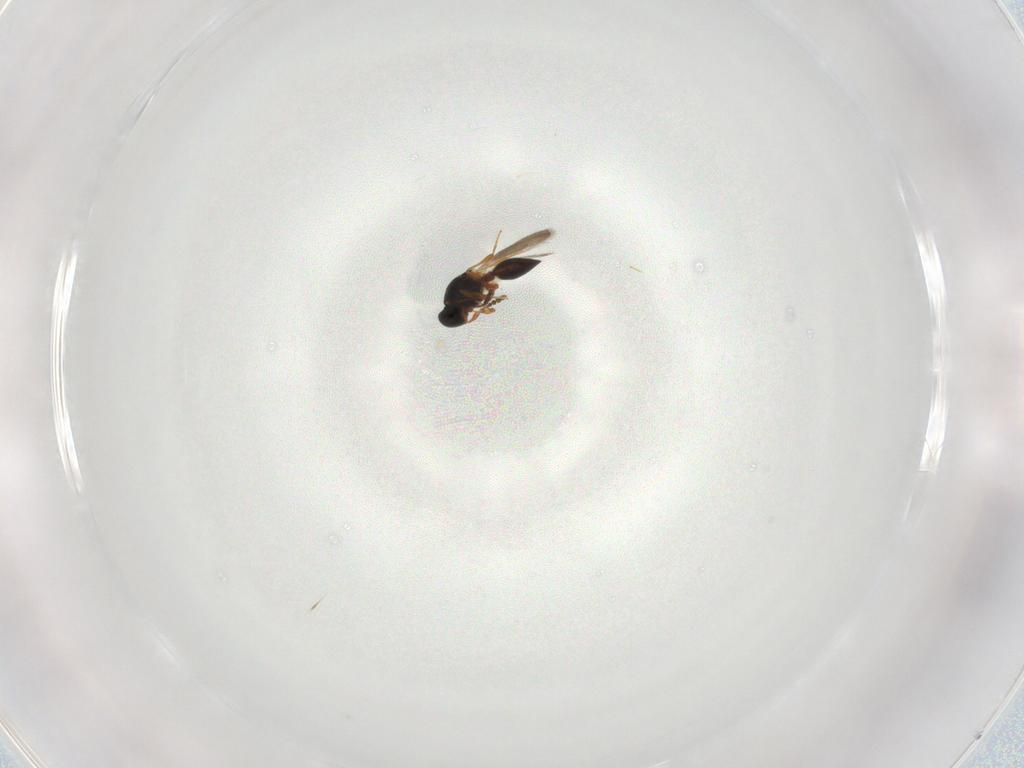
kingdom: Animalia
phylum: Arthropoda
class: Insecta
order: Hymenoptera
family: Platygastridae
